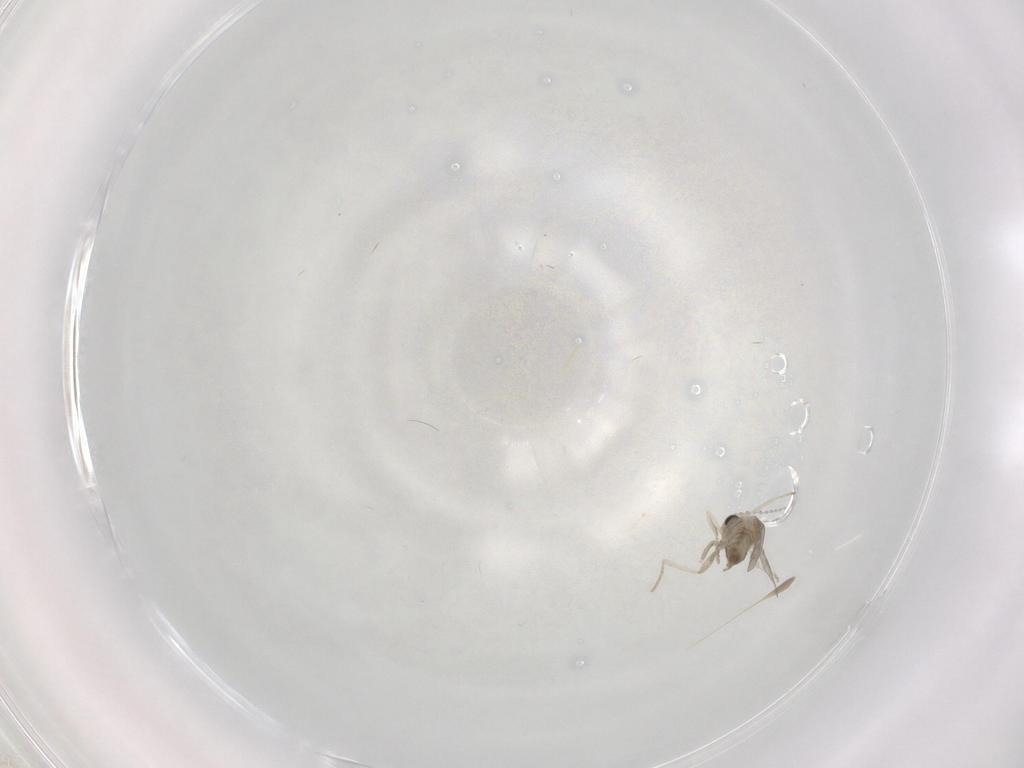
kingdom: Animalia
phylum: Arthropoda
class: Insecta
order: Diptera
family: Cecidomyiidae
